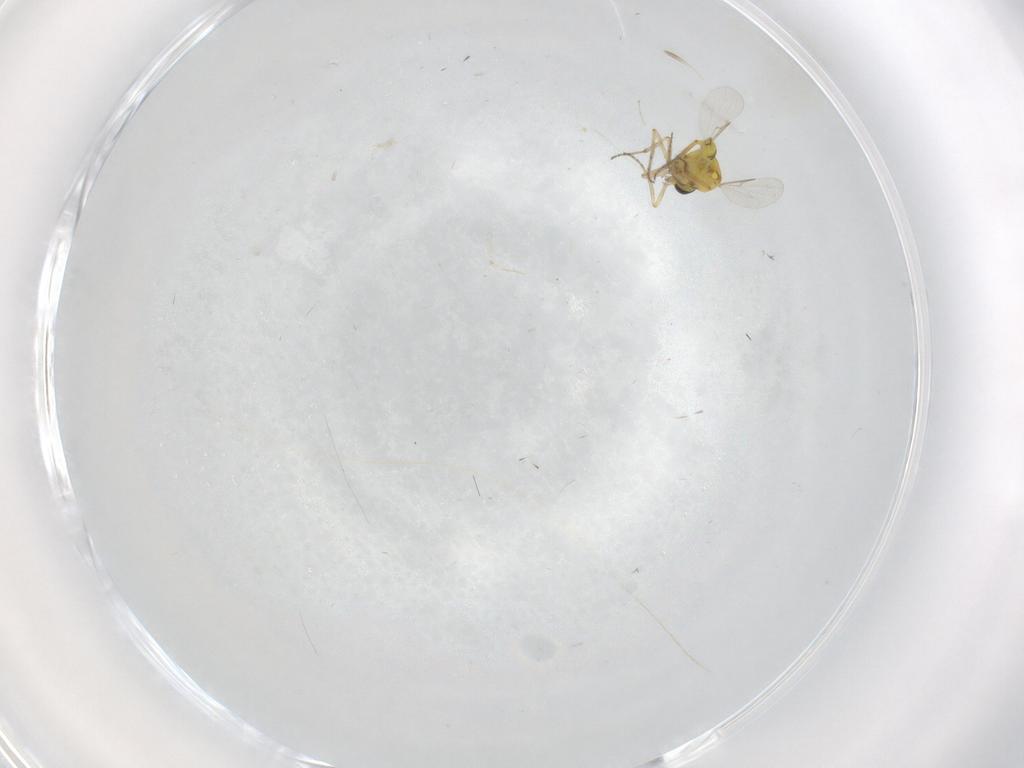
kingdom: Animalia
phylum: Arthropoda
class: Insecta
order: Diptera
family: Ceratopogonidae
